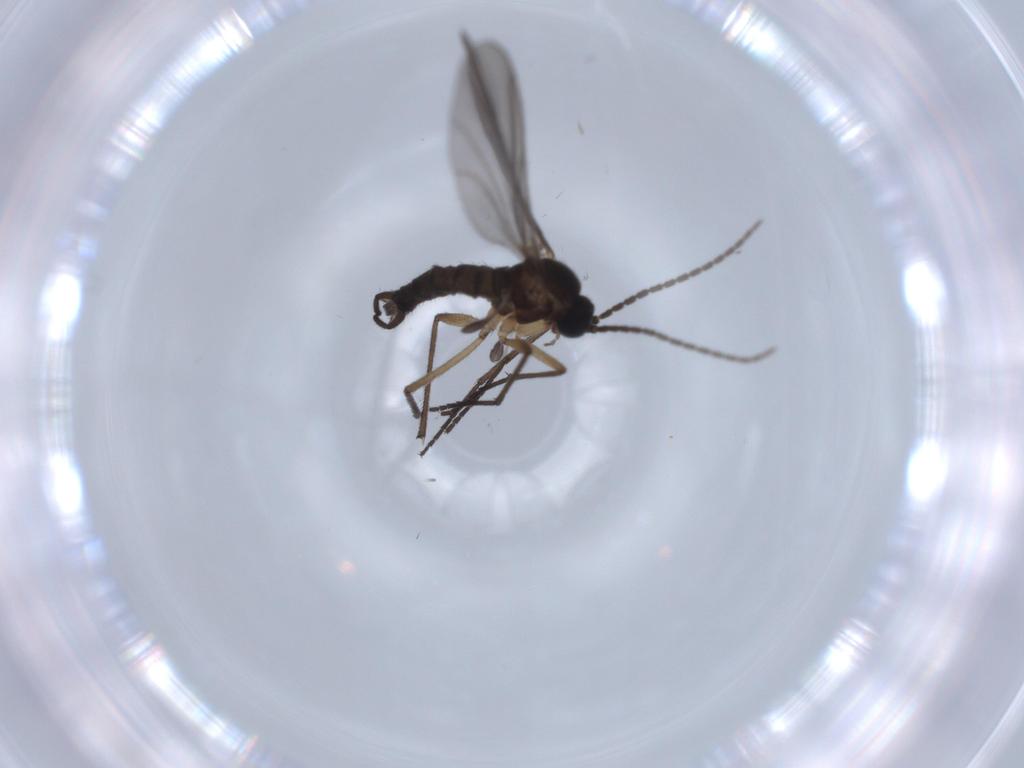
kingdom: Animalia
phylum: Arthropoda
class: Insecta
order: Diptera
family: Sciaridae
